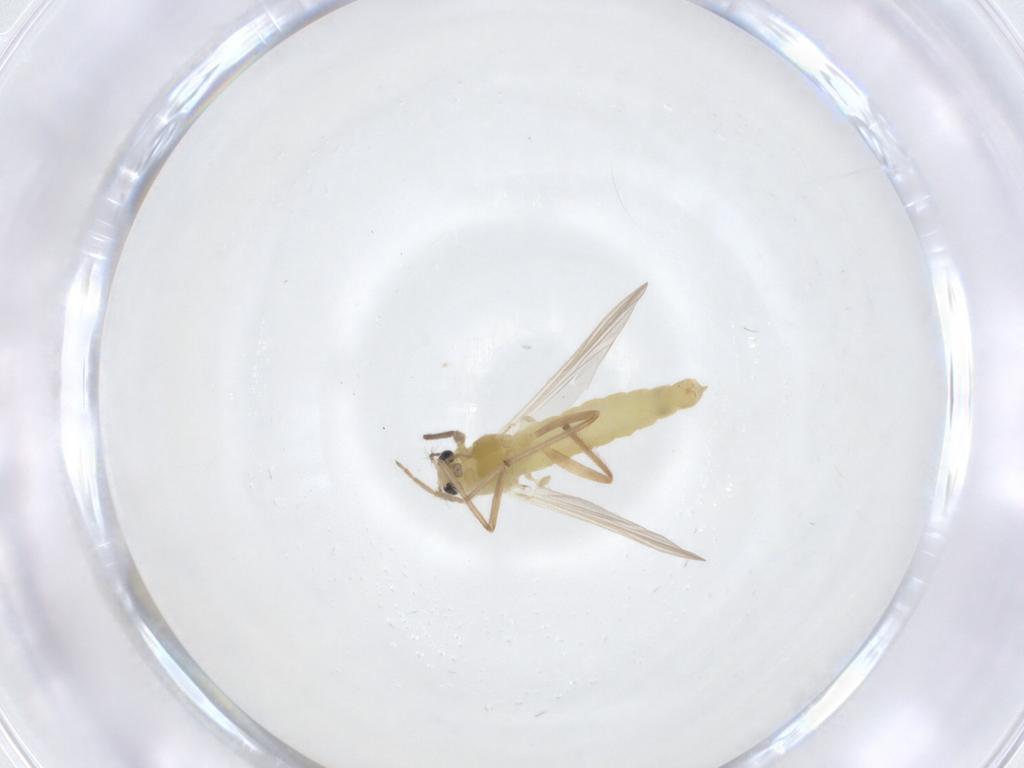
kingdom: Animalia
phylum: Arthropoda
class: Insecta
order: Diptera
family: Chironomidae
